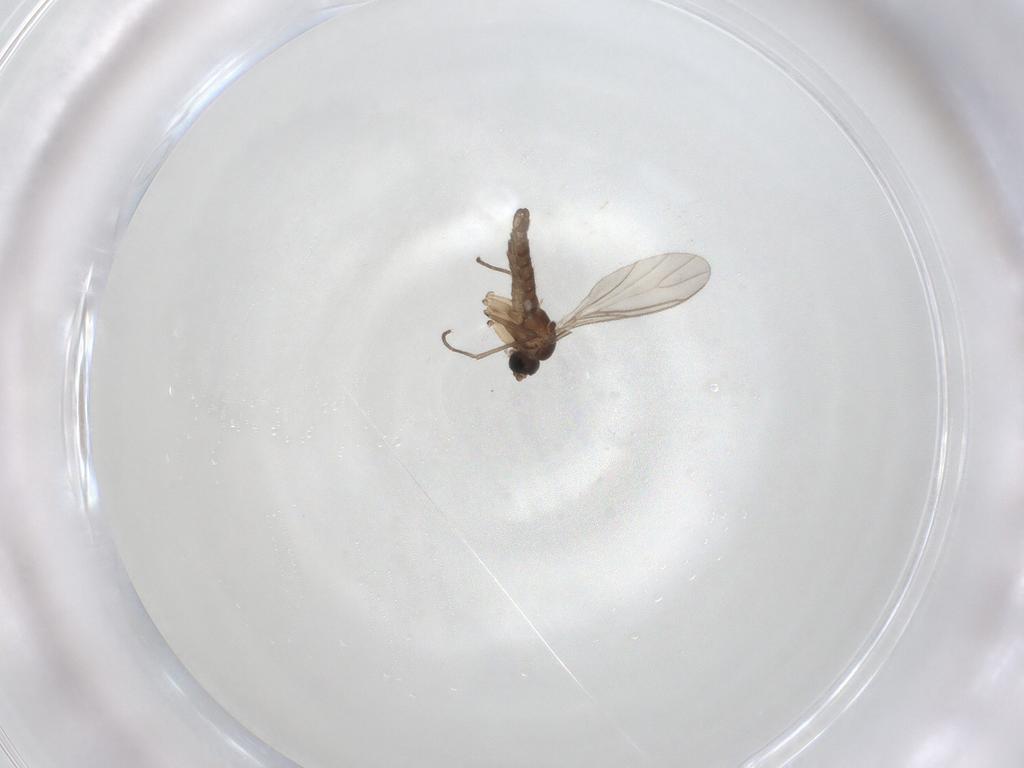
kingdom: Animalia
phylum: Arthropoda
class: Insecta
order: Diptera
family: Sciaridae
